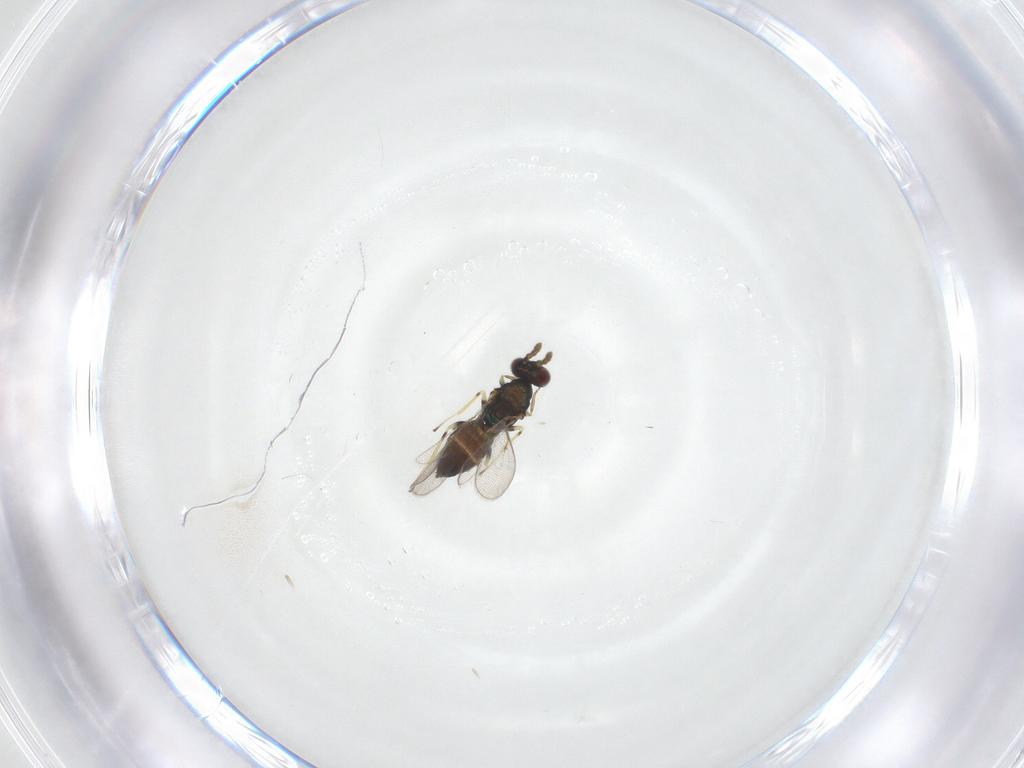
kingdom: Animalia
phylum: Arthropoda
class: Insecta
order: Hymenoptera
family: Eulophidae
